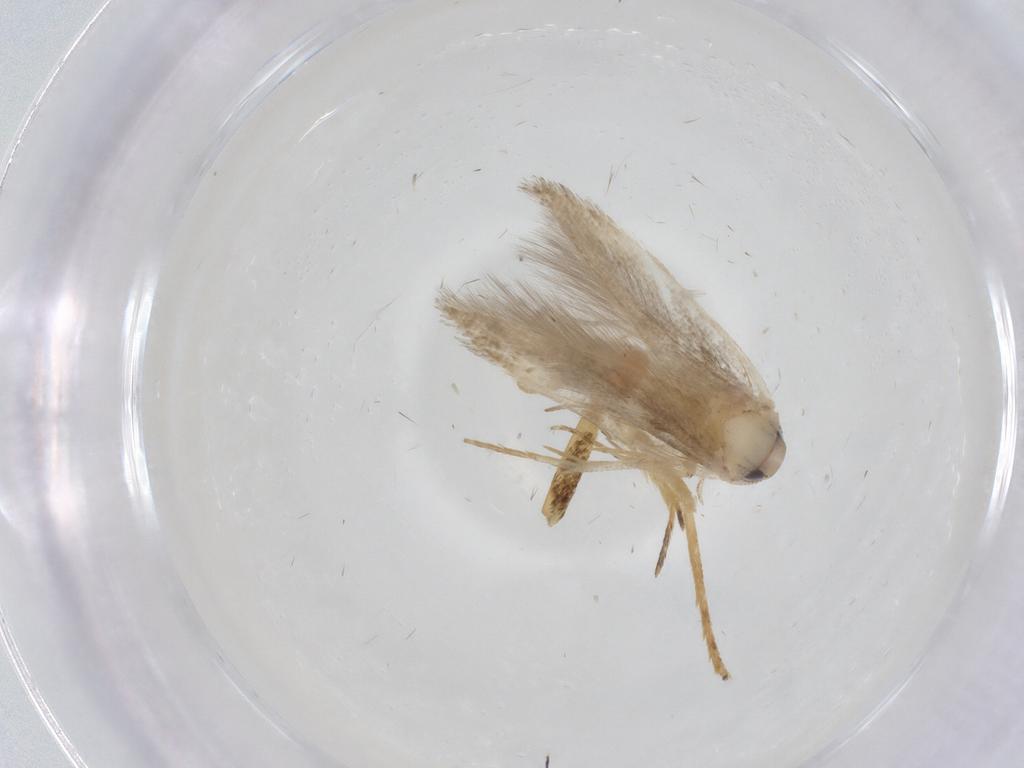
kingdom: Animalia
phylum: Arthropoda
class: Insecta
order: Lepidoptera
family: Gelechiidae
